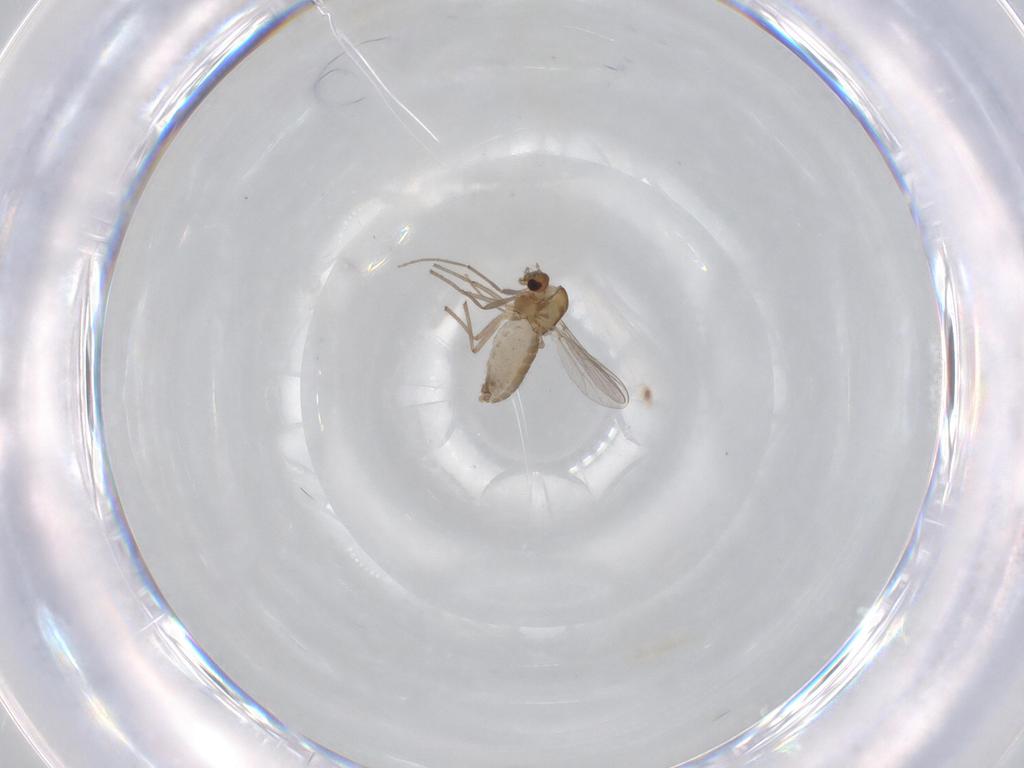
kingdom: Animalia
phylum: Arthropoda
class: Insecta
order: Diptera
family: Chironomidae
